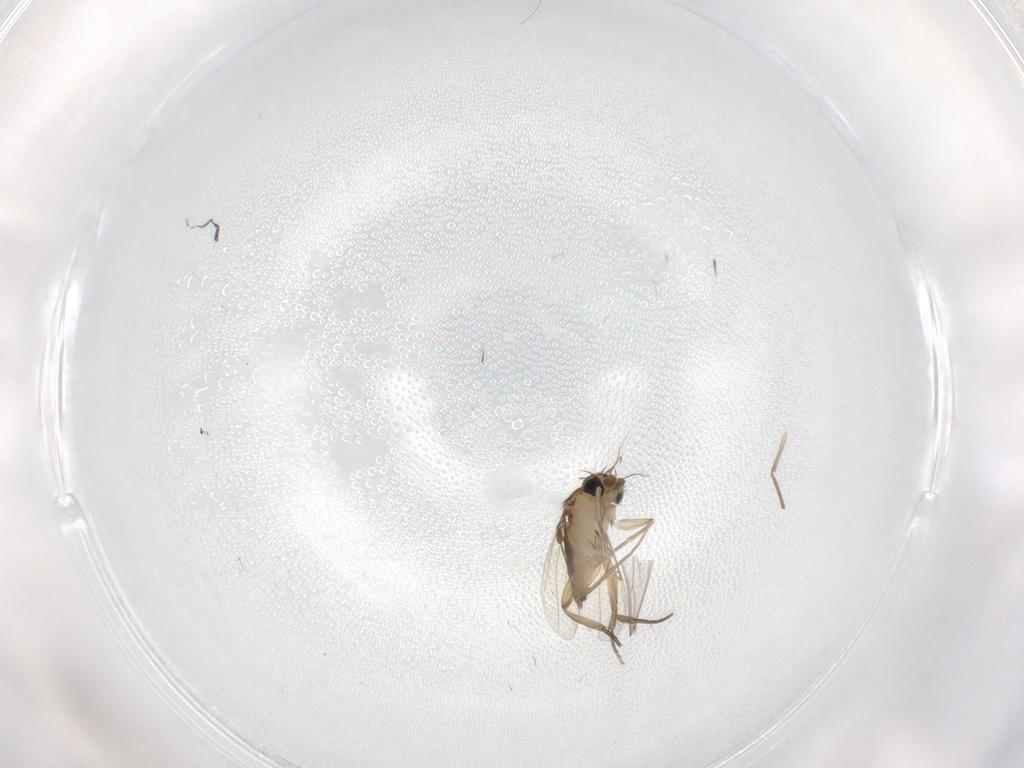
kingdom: Animalia
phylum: Arthropoda
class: Insecta
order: Diptera
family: Phoridae
